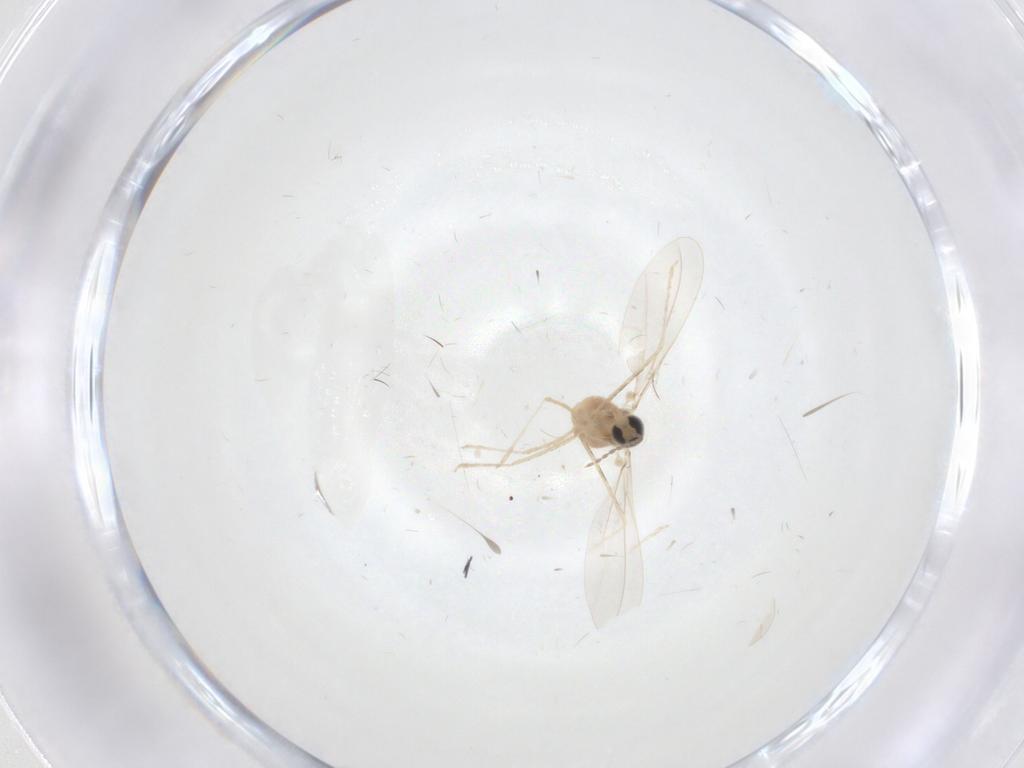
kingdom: Animalia
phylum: Arthropoda
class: Insecta
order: Diptera
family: Cecidomyiidae
